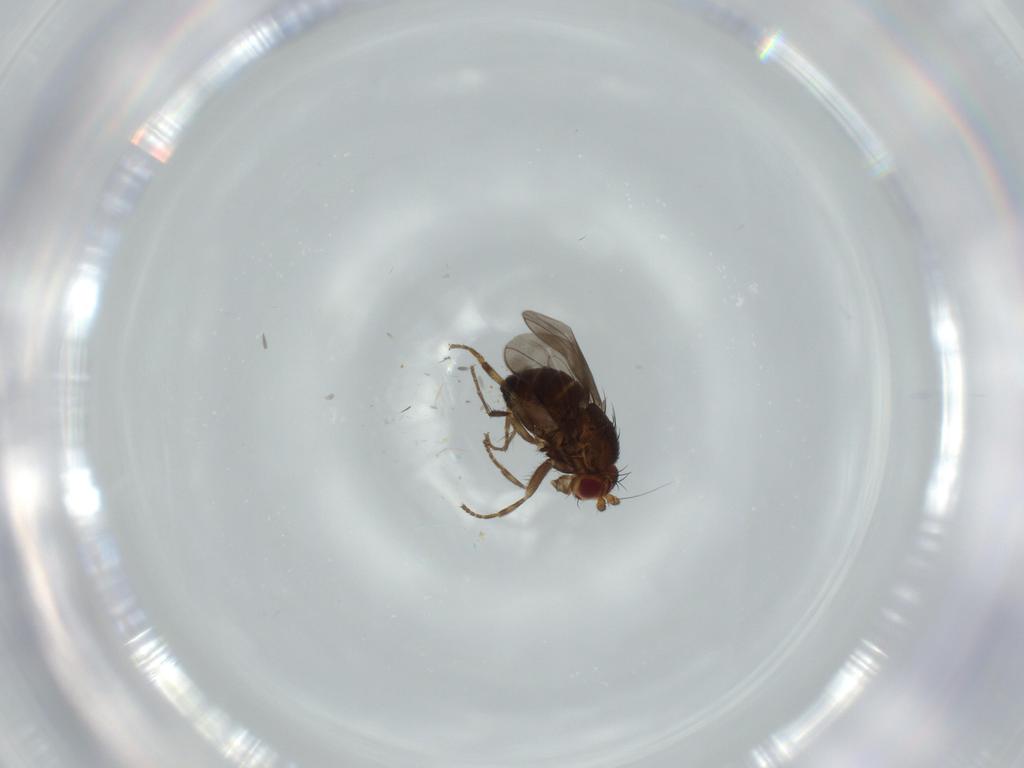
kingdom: Animalia
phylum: Arthropoda
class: Insecta
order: Diptera
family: Sphaeroceridae
